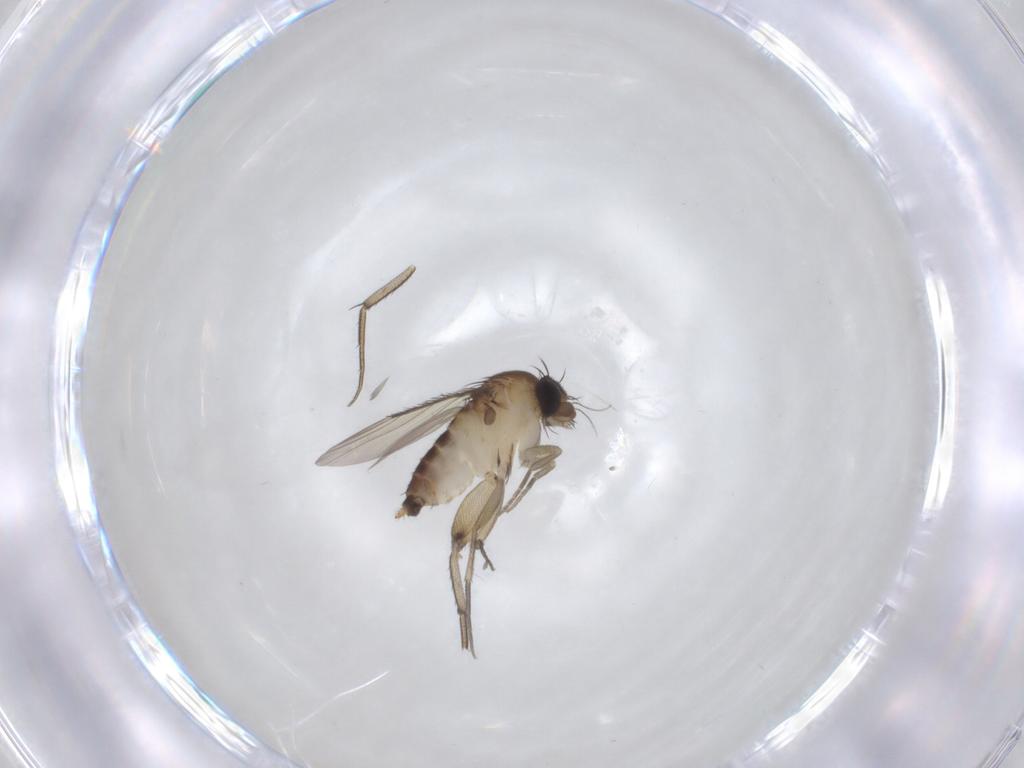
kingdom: Animalia
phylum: Arthropoda
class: Insecta
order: Diptera
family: Phoridae
